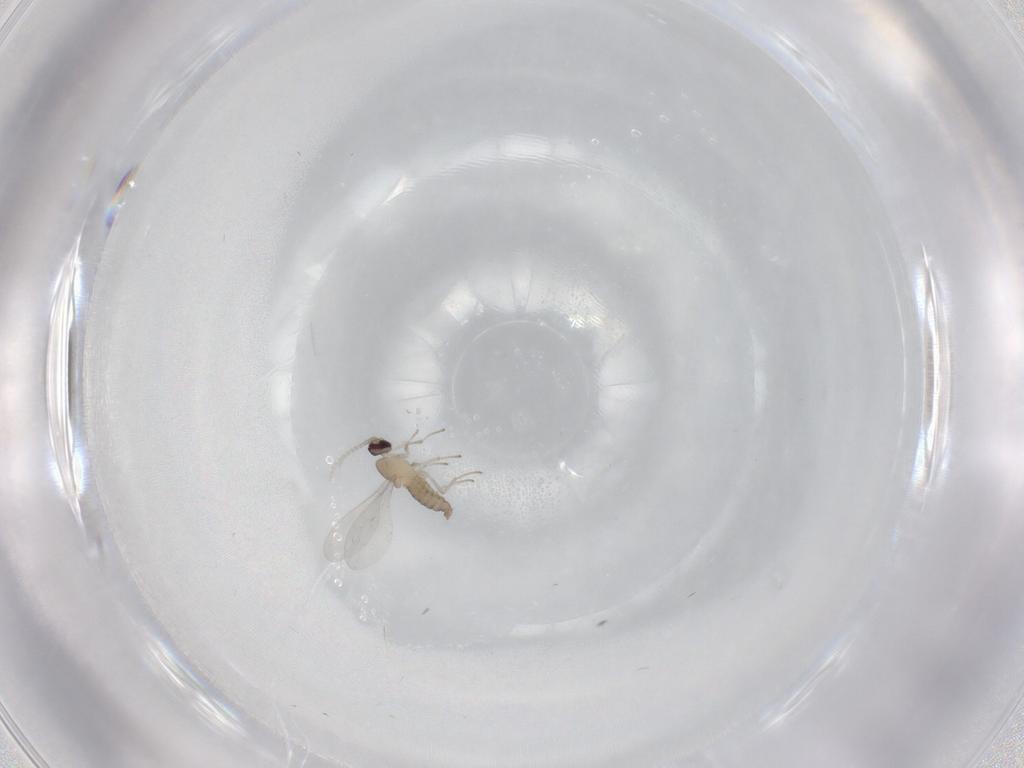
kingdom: Animalia
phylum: Arthropoda
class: Insecta
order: Diptera
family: Cecidomyiidae
